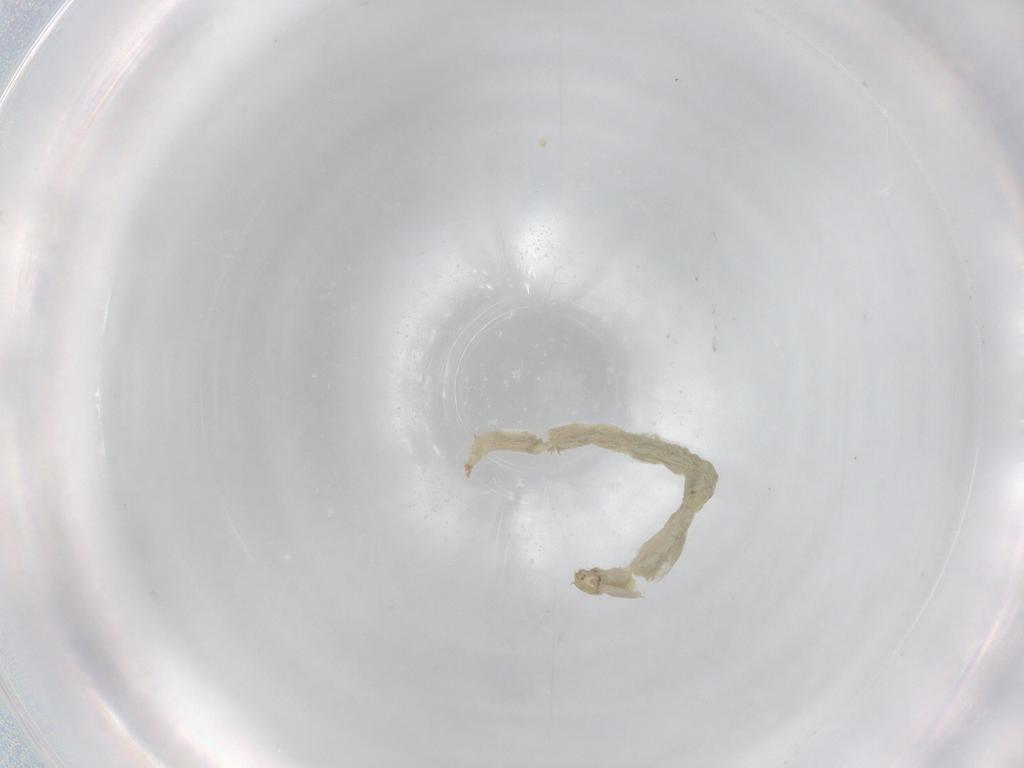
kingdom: Animalia
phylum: Arthropoda
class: Insecta
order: Diptera
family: Chironomidae
